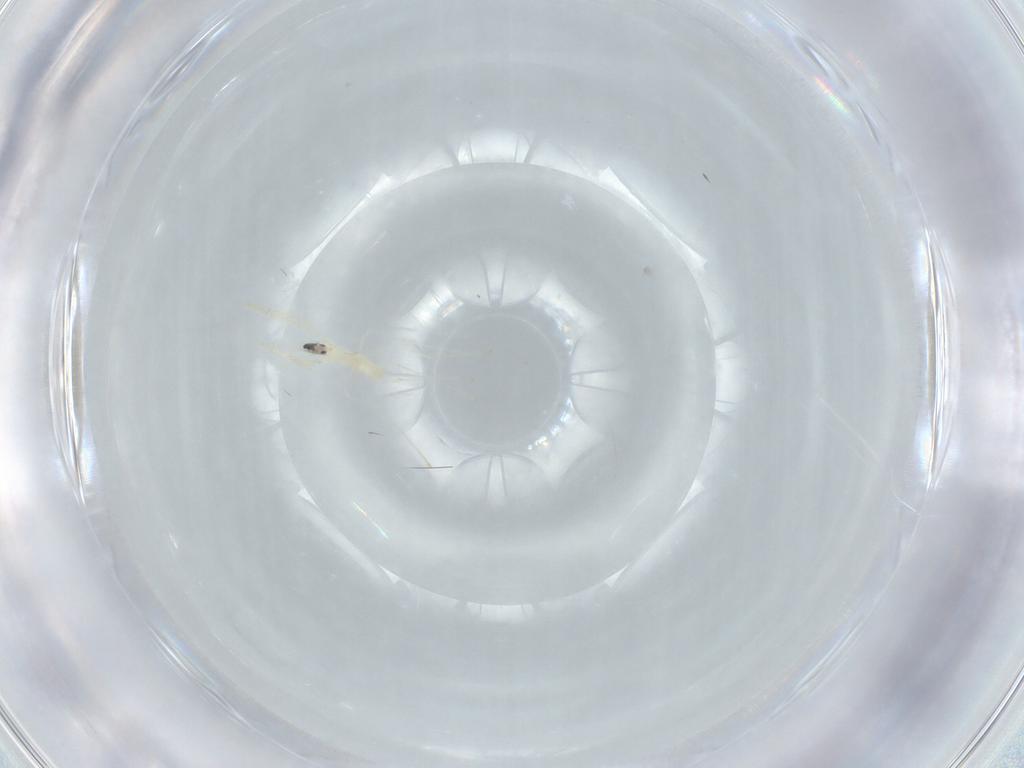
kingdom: Animalia
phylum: Arthropoda
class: Insecta
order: Diptera
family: Cecidomyiidae
